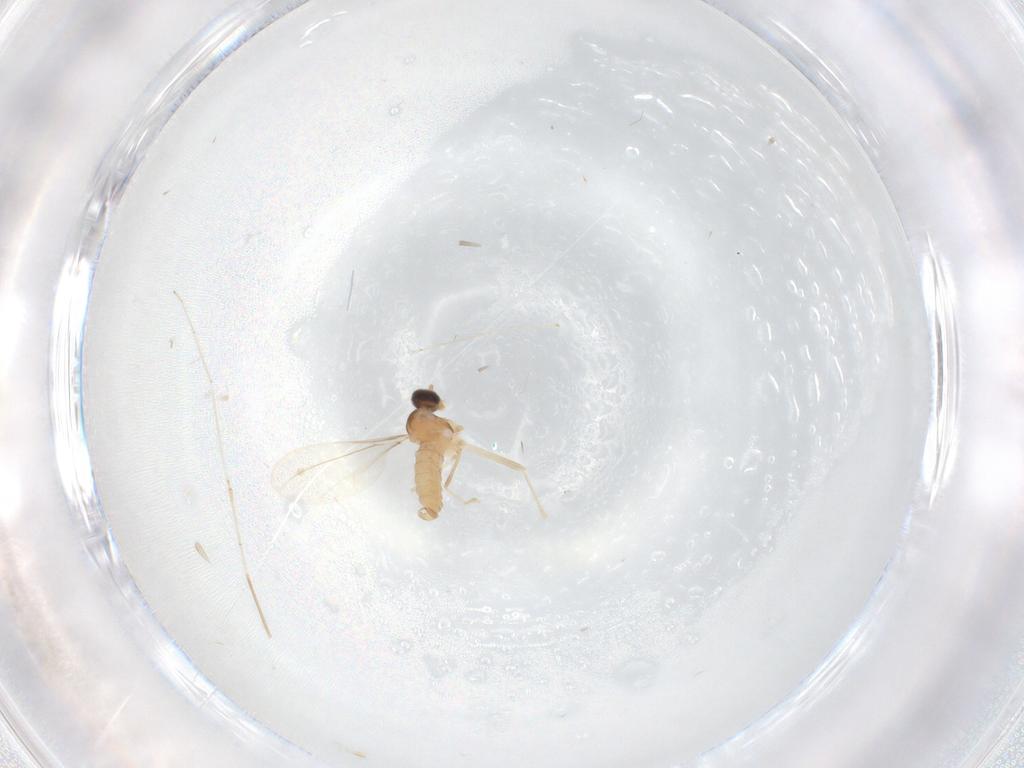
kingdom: Animalia
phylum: Arthropoda
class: Insecta
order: Diptera
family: Cecidomyiidae
